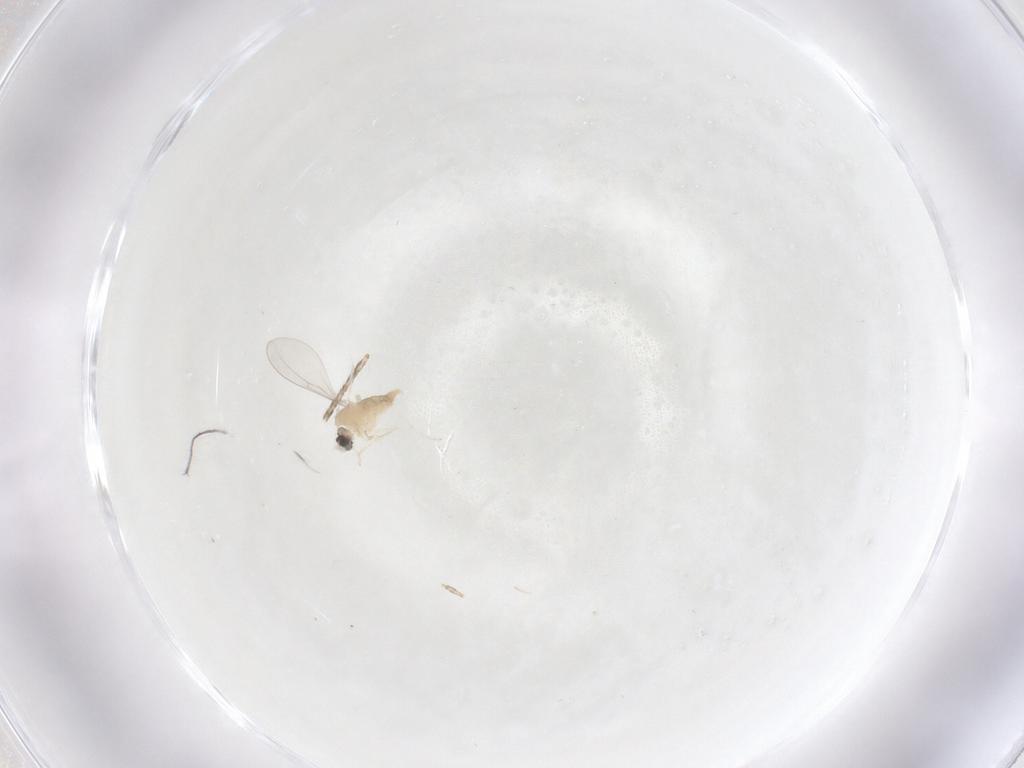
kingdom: Animalia
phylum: Arthropoda
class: Insecta
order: Diptera
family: Cecidomyiidae
